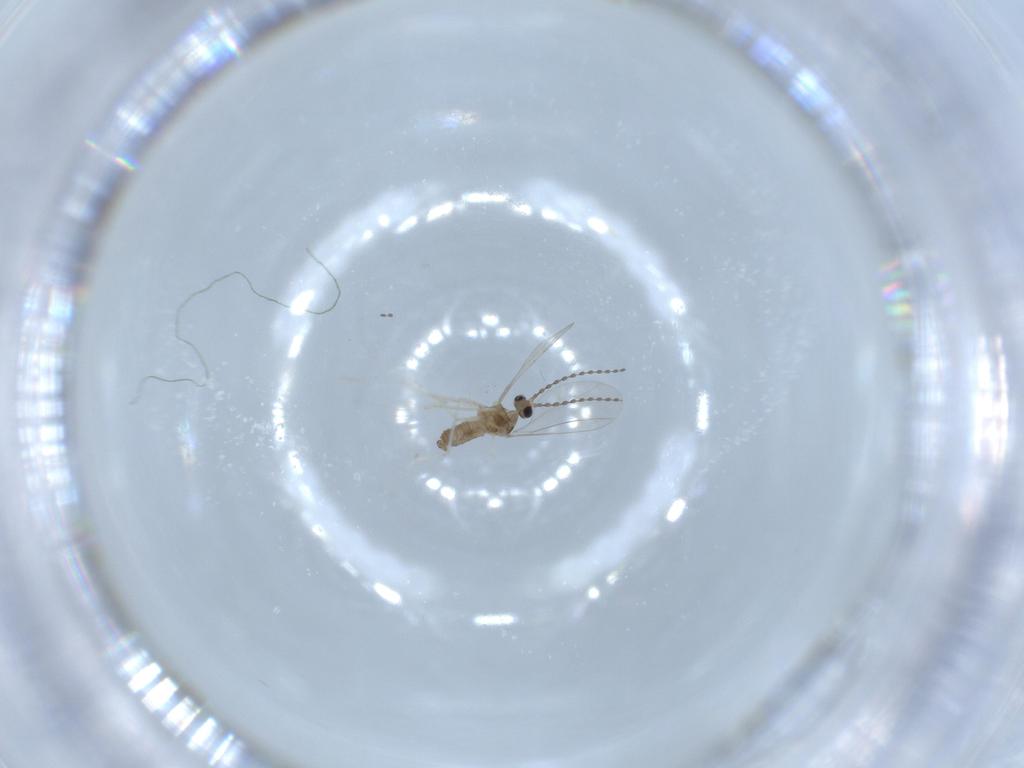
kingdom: Animalia
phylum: Arthropoda
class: Insecta
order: Diptera
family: Cecidomyiidae
